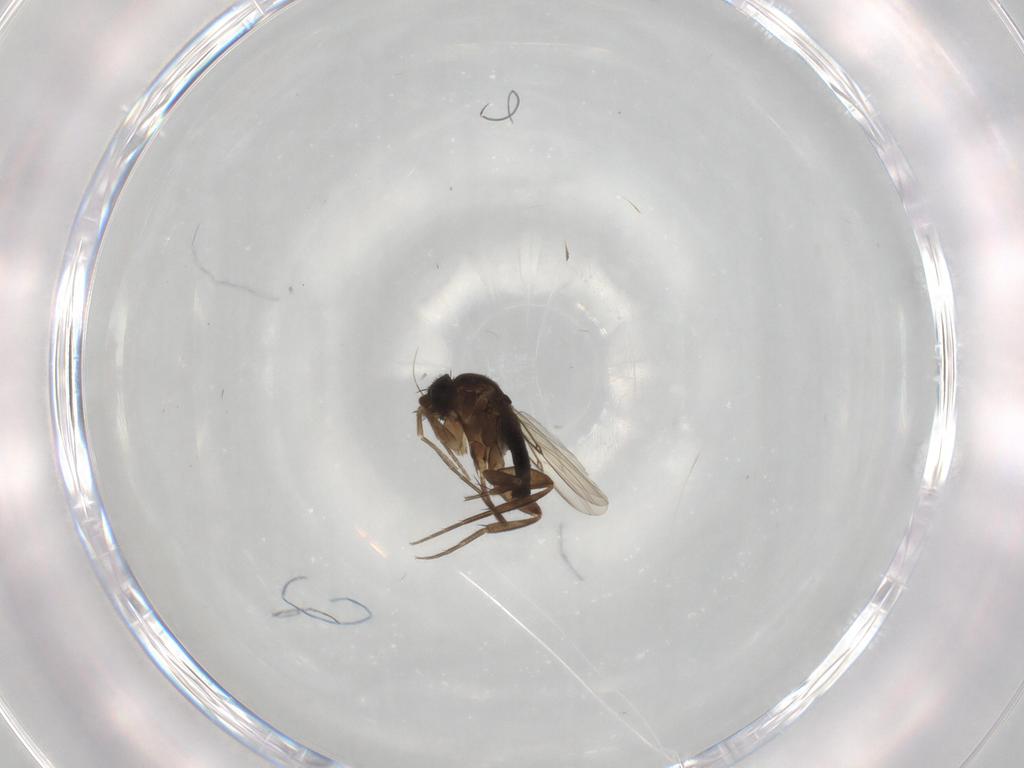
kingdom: Animalia
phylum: Arthropoda
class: Insecta
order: Diptera
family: Phoridae
